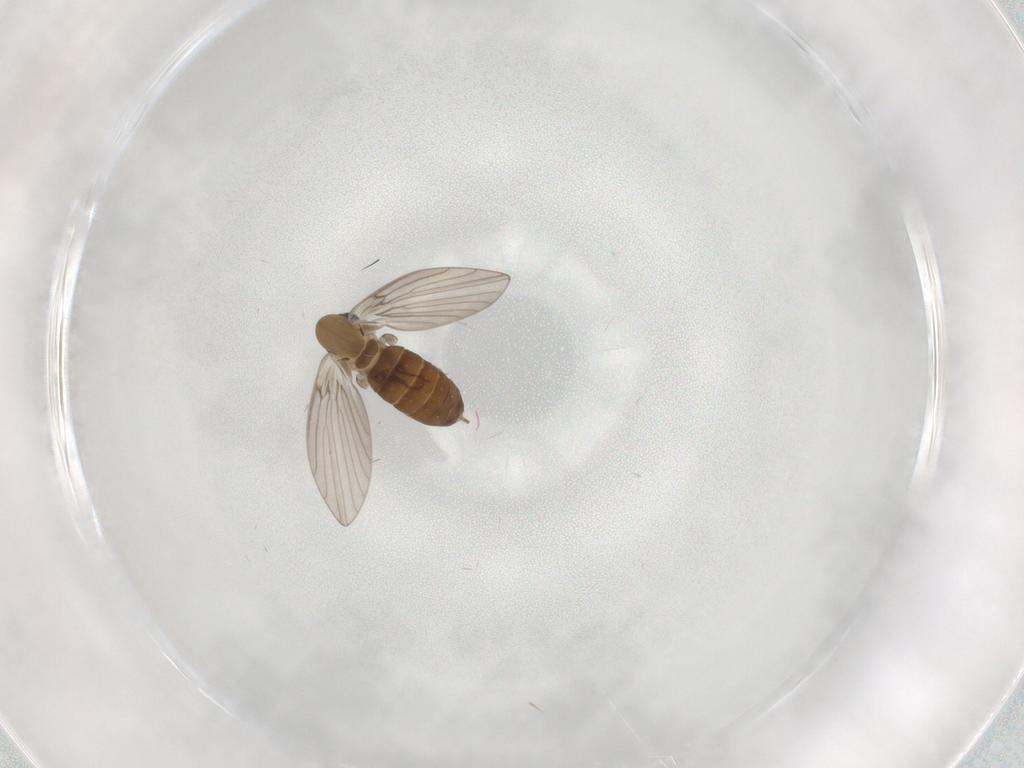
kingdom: Animalia
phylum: Arthropoda
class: Insecta
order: Diptera
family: Psychodidae
